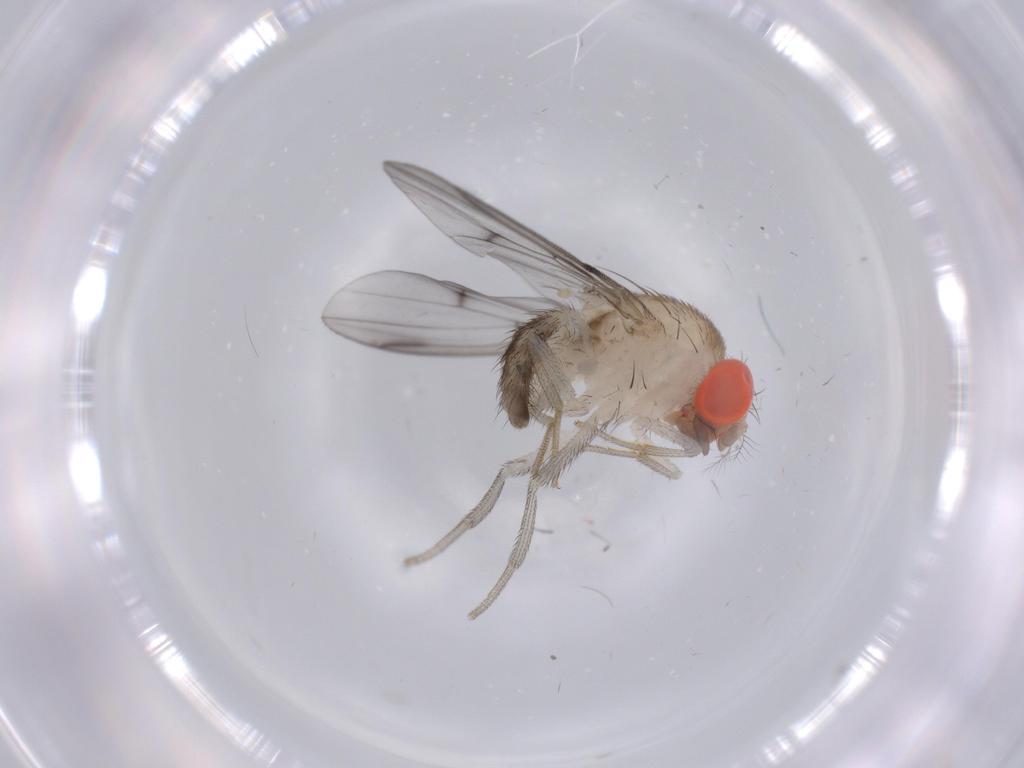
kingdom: Animalia
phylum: Arthropoda
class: Insecta
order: Diptera
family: Drosophilidae
